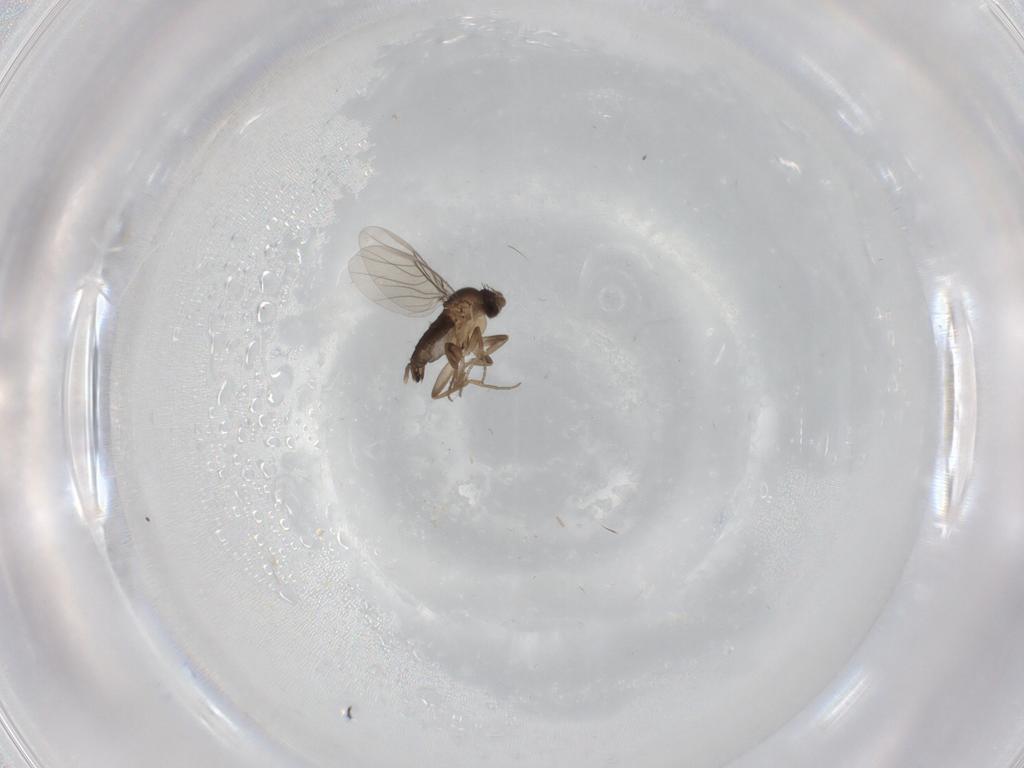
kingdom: Animalia
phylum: Arthropoda
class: Insecta
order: Diptera
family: Phoridae
